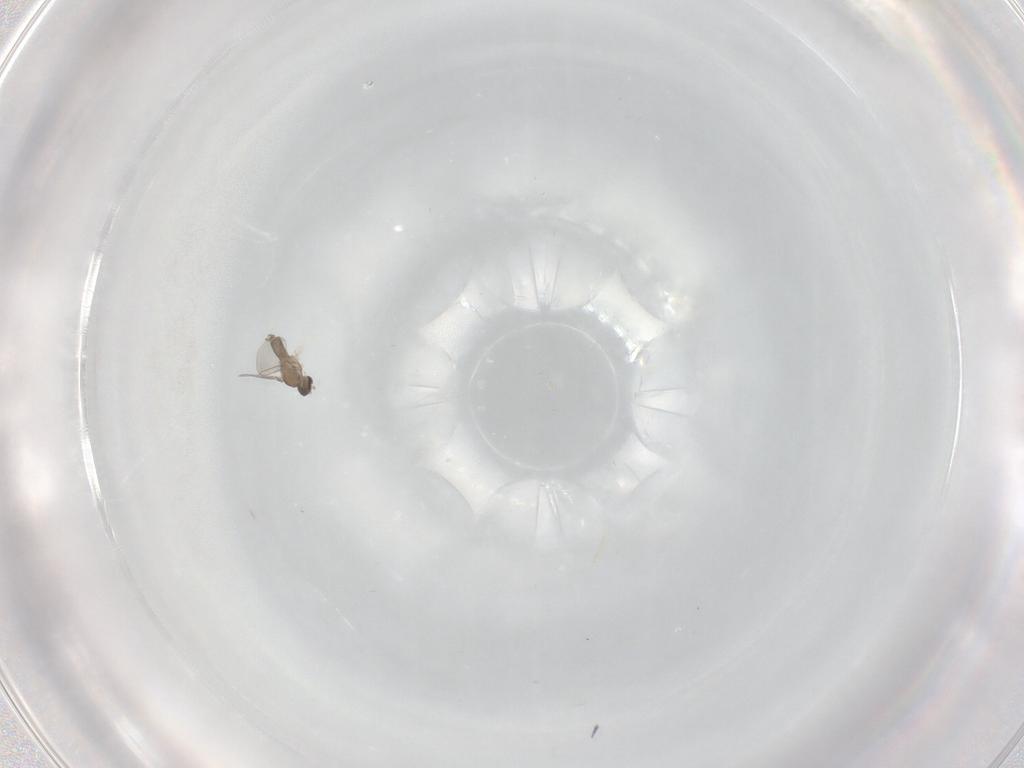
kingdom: Animalia
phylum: Arthropoda
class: Insecta
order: Diptera
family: Cecidomyiidae
